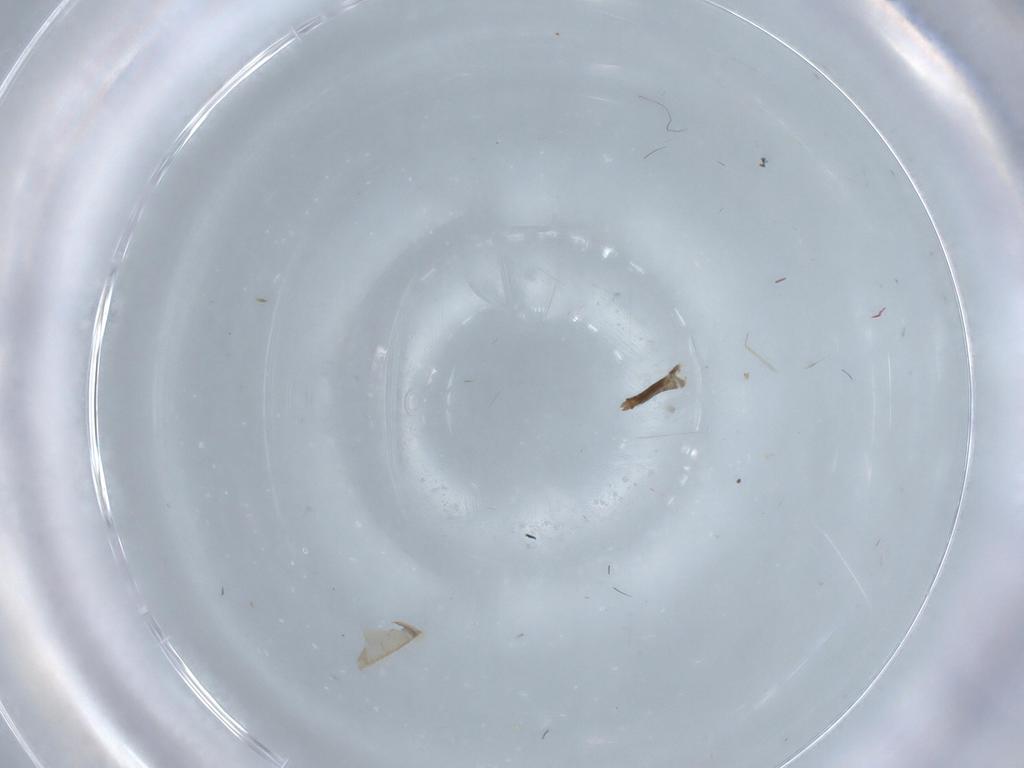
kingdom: Animalia
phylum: Arthropoda
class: Insecta
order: Diptera
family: Chironomidae
